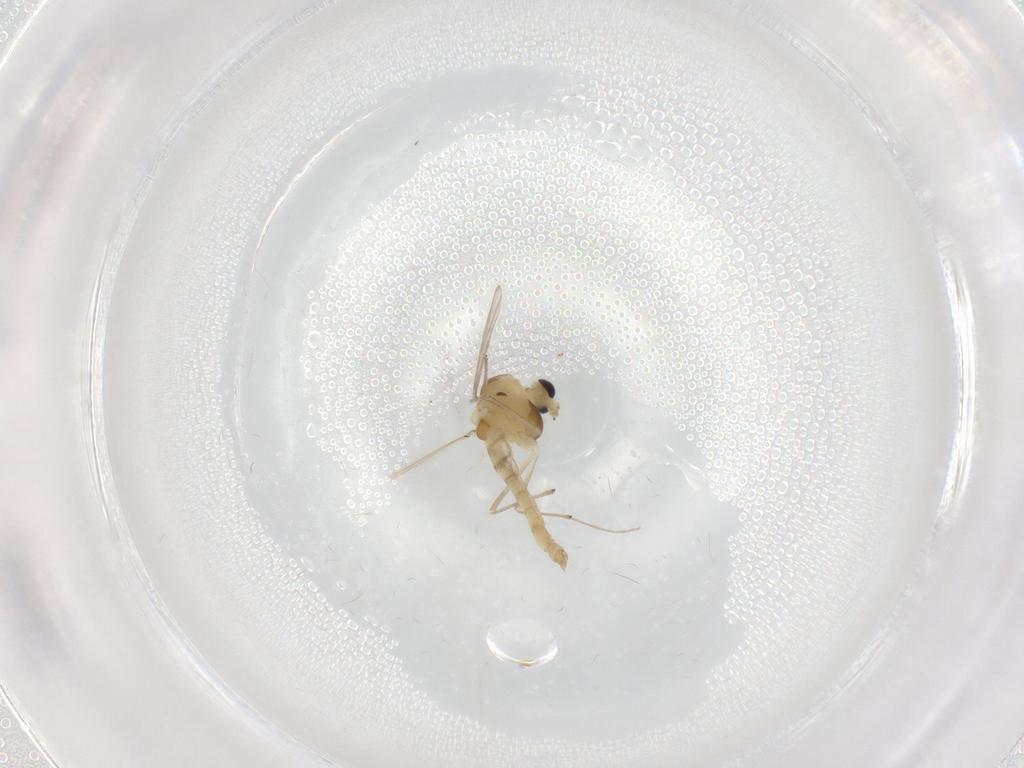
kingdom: Animalia
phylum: Arthropoda
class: Insecta
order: Diptera
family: Chironomidae
